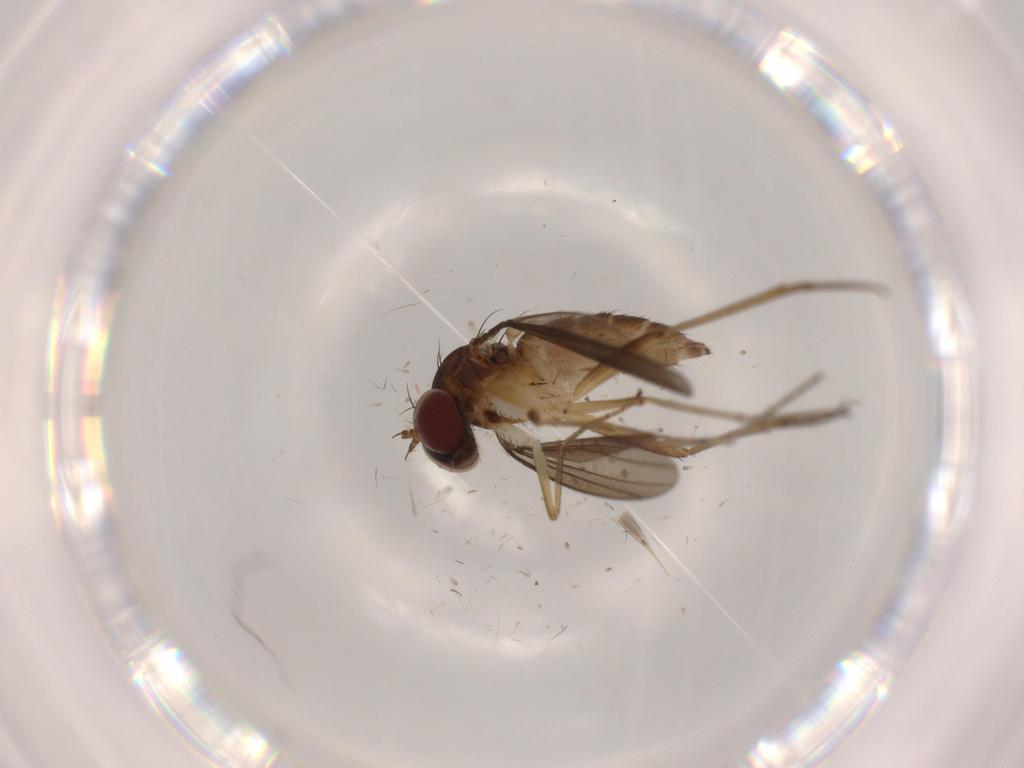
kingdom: Animalia
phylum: Arthropoda
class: Insecta
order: Diptera
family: Dolichopodidae
